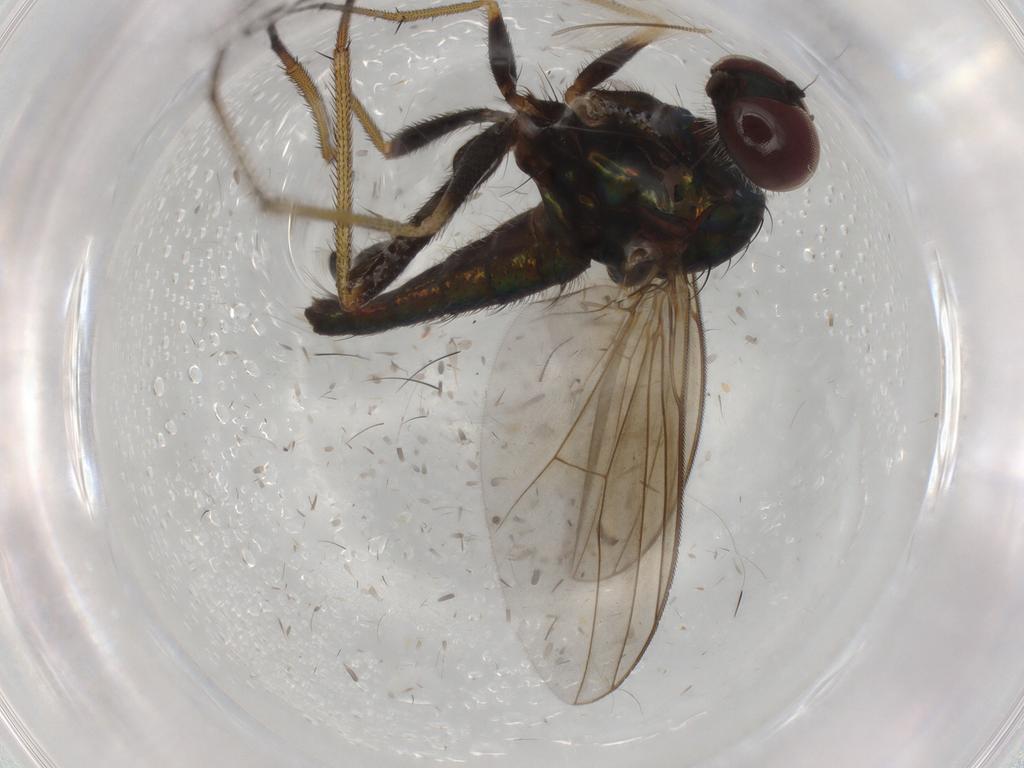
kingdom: Animalia
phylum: Arthropoda
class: Insecta
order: Diptera
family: Dolichopodidae
